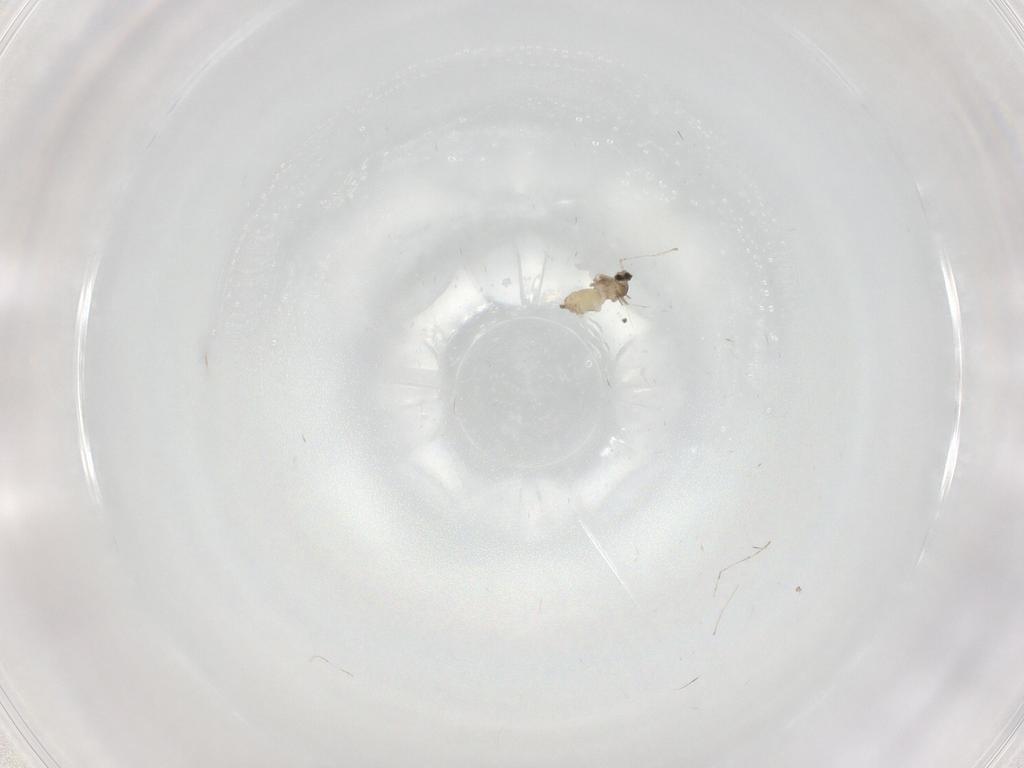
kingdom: Animalia
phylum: Arthropoda
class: Insecta
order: Diptera
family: Cecidomyiidae
